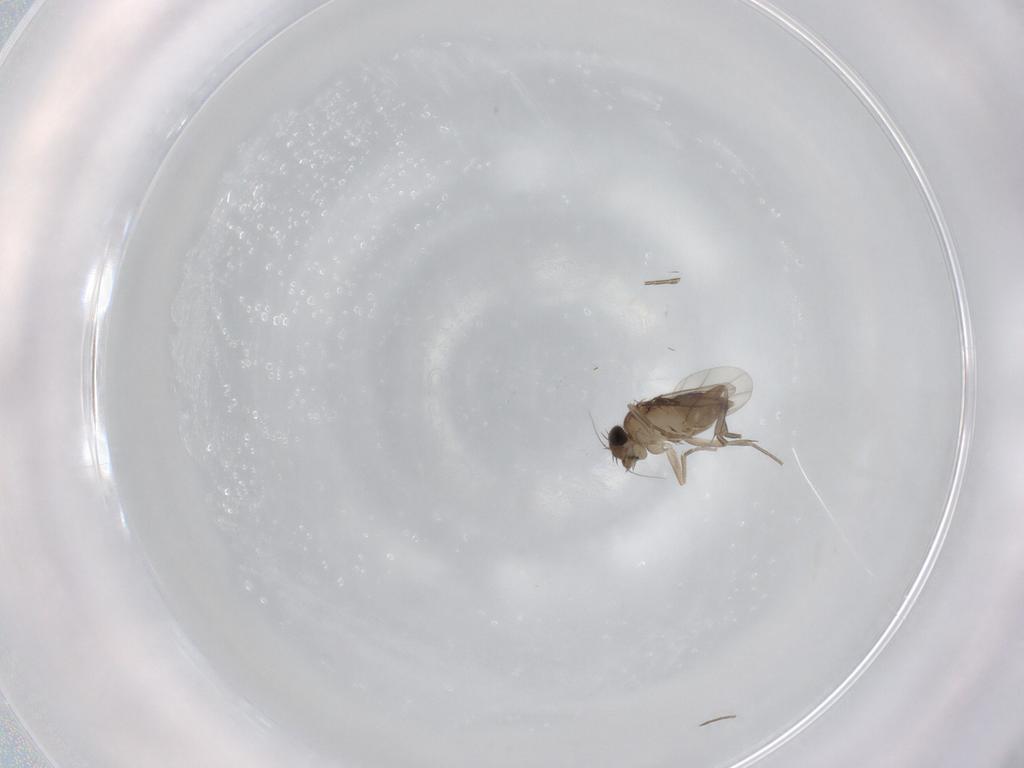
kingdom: Animalia
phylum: Arthropoda
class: Insecta
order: Diptera
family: Phoridae
